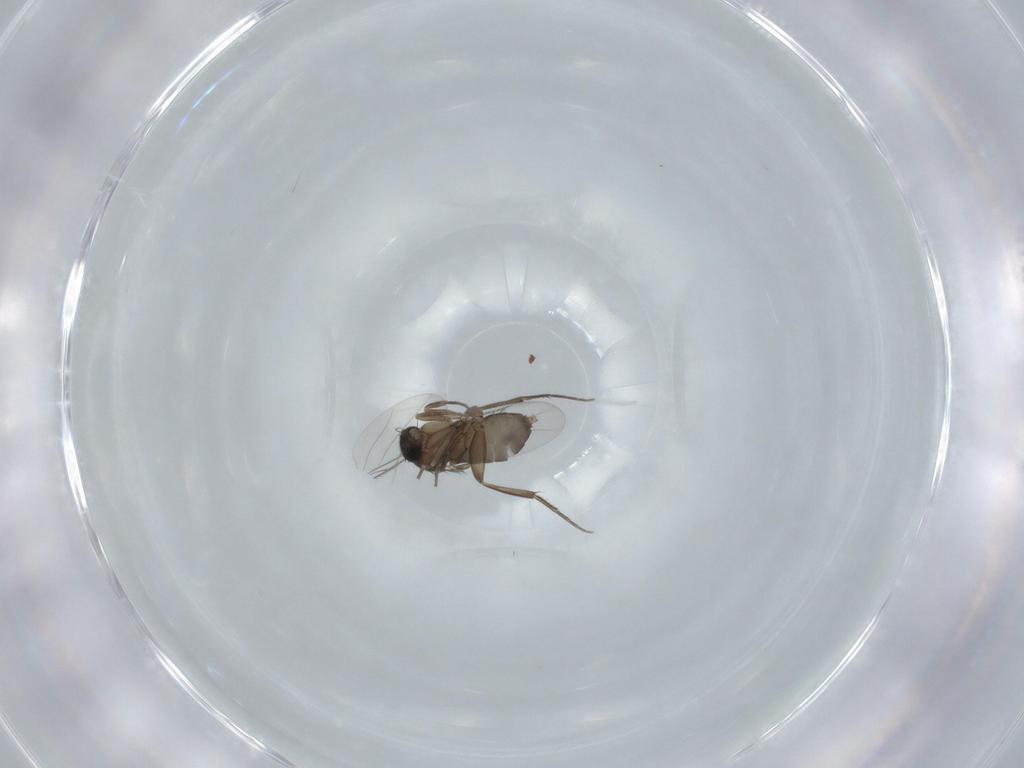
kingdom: Animalia
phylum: Arthropoda
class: Insecta
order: Diptera
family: Phoridae
